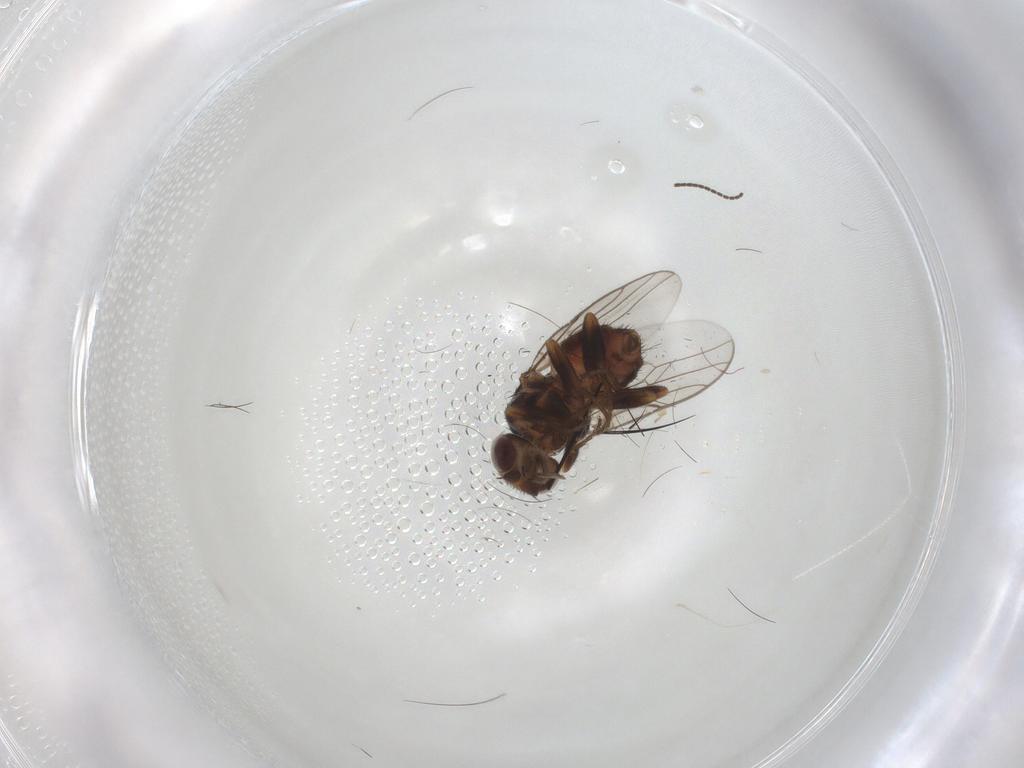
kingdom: Animalia
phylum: Arthropoda
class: Insecta
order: Diptera
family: Chloropidae
